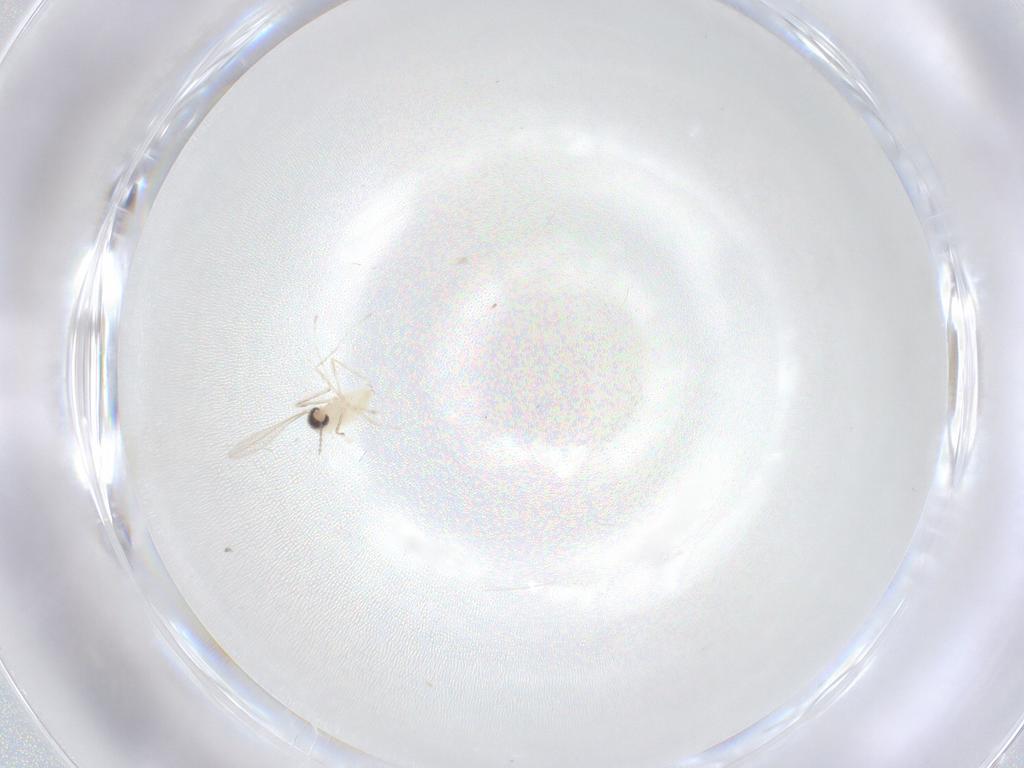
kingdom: Animalia
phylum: Arthropoda
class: Insecta
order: Diptera
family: Cecidomyiidae
